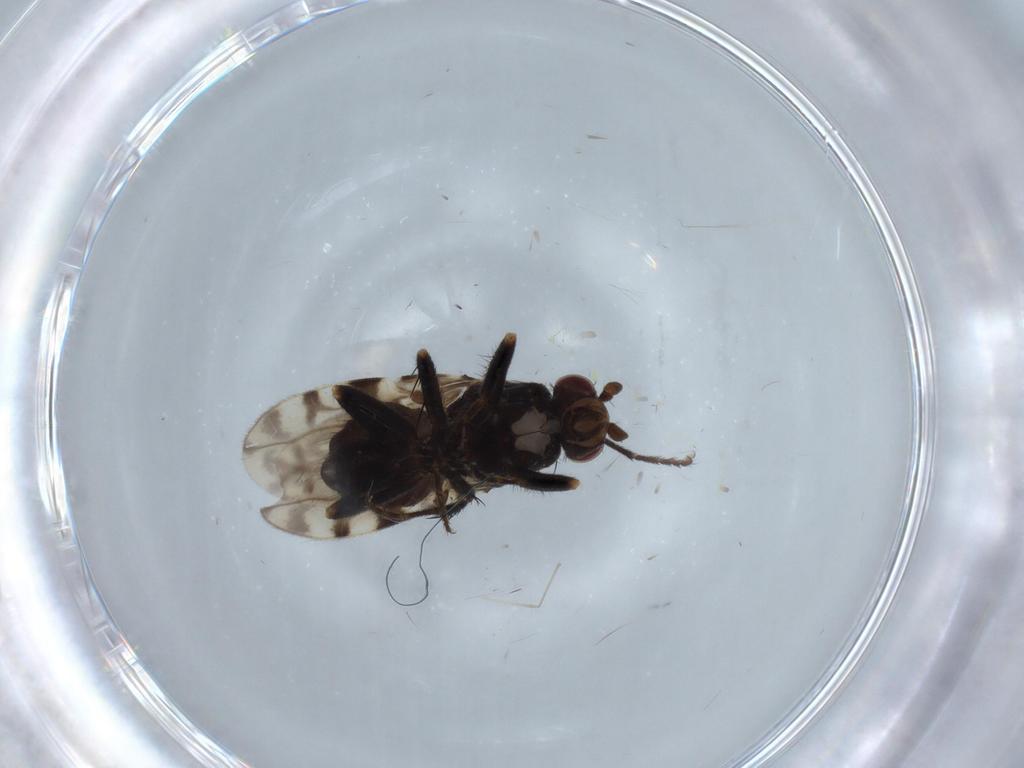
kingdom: Animalia
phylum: Arthropoda
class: Insecta
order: Diptera
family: Micropezidae
